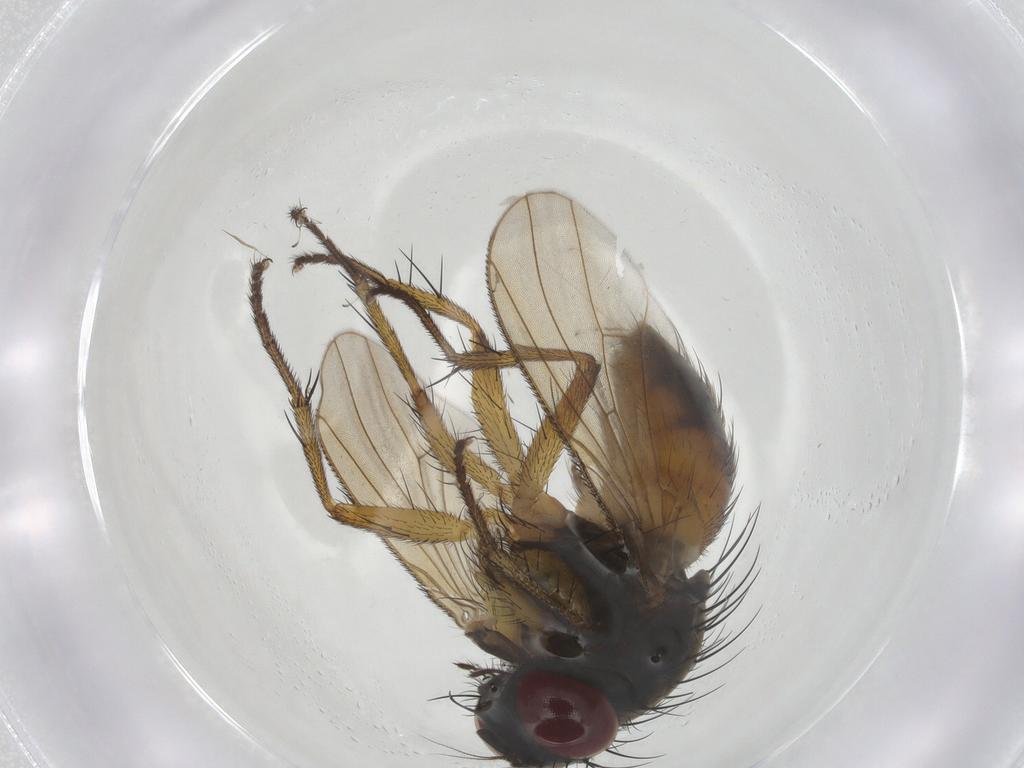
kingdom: Animalia
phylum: Arthropoda
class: Insecta
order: Diptera
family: Muscidae
